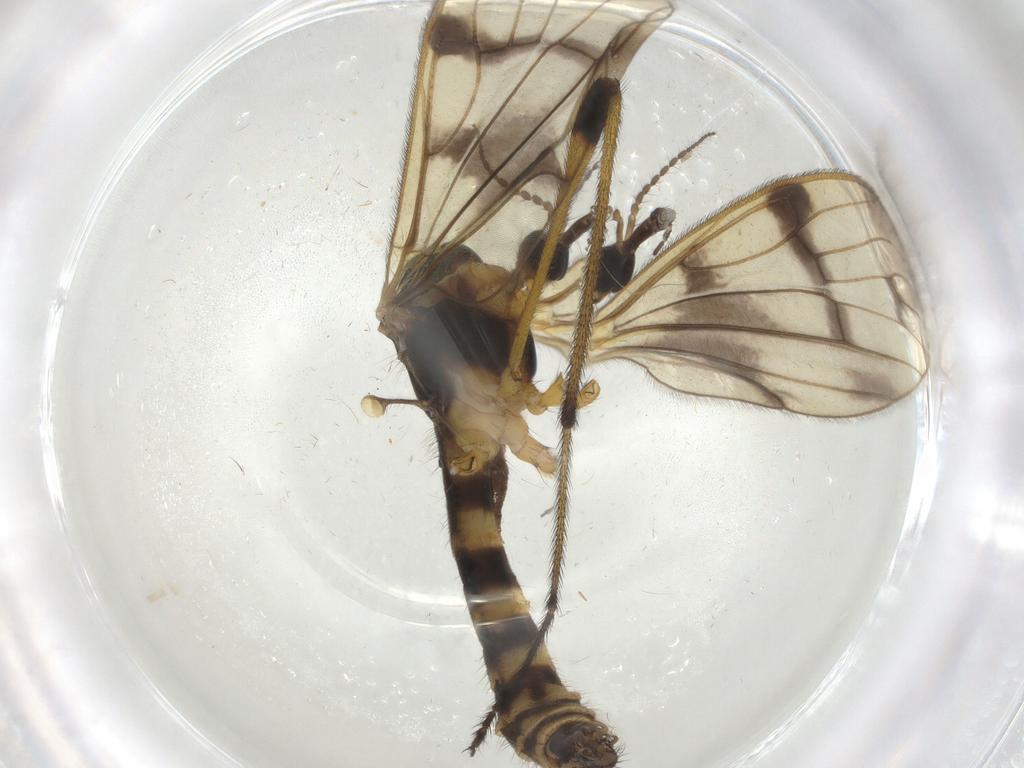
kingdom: Animalia
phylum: Arthropoda
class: Insecta
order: Diptera
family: Limoniidae
